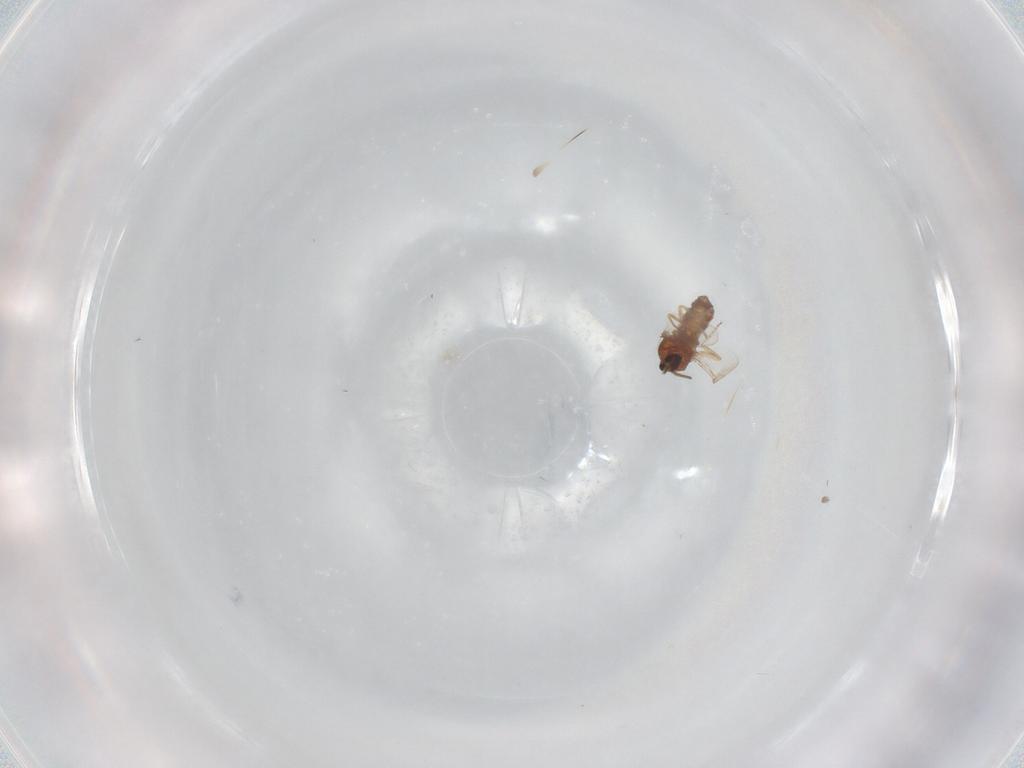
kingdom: Animalia
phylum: Arthropoda
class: Insecta
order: Diptera
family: Ceratopogonidae
